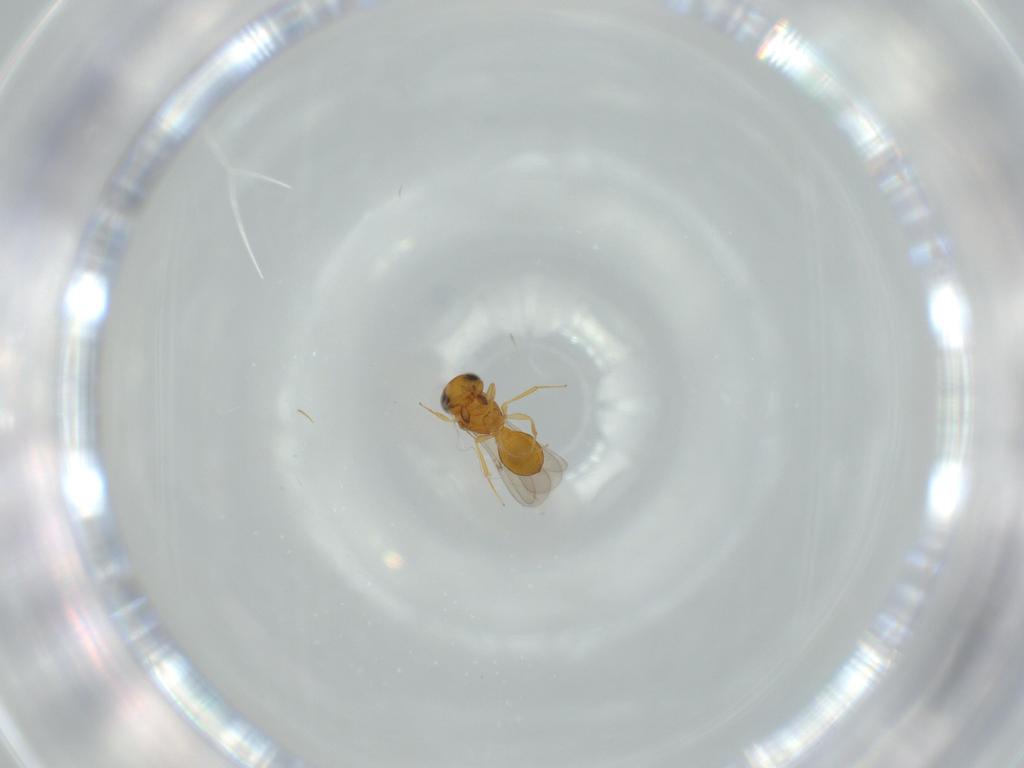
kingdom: Animalia
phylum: Arthropoda
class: Insecta
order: Hymenoptera
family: Scelionidae
